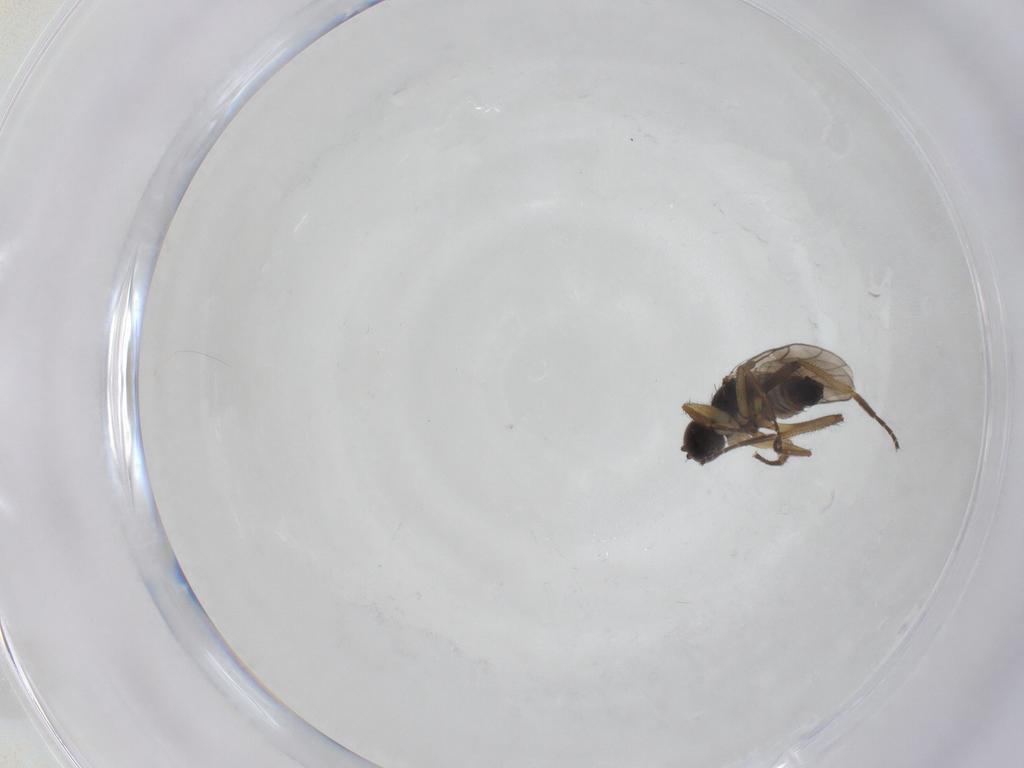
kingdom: Animalia
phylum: Arthropoda
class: Insecta
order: Diptera
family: Hybotidae
